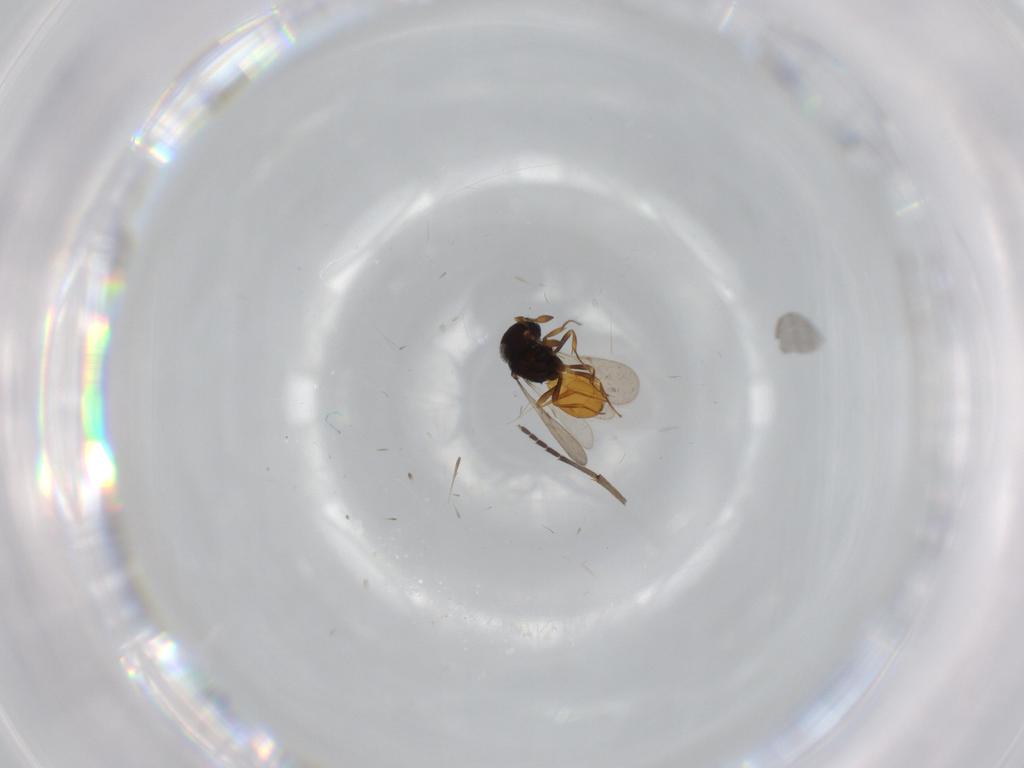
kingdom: Animalia
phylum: Arthropoda
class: Insecta
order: Hymenoptera
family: Scelionidae
